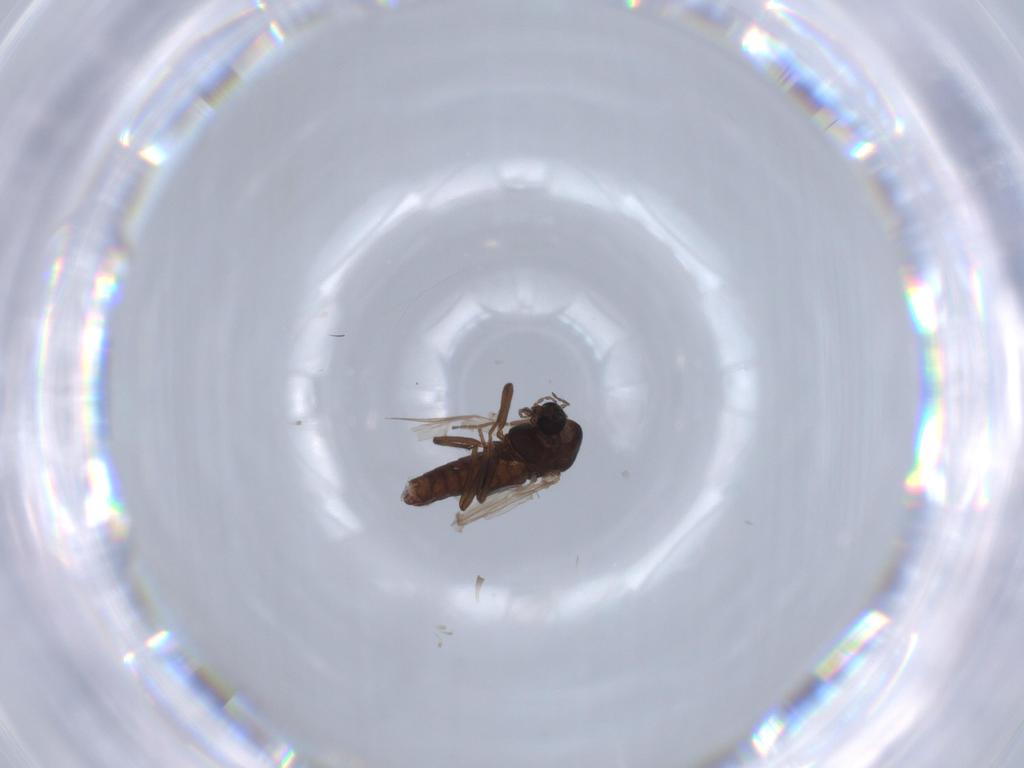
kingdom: Animalia
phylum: Arthropoda
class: Insecta
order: Diptera
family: Chironomidae
